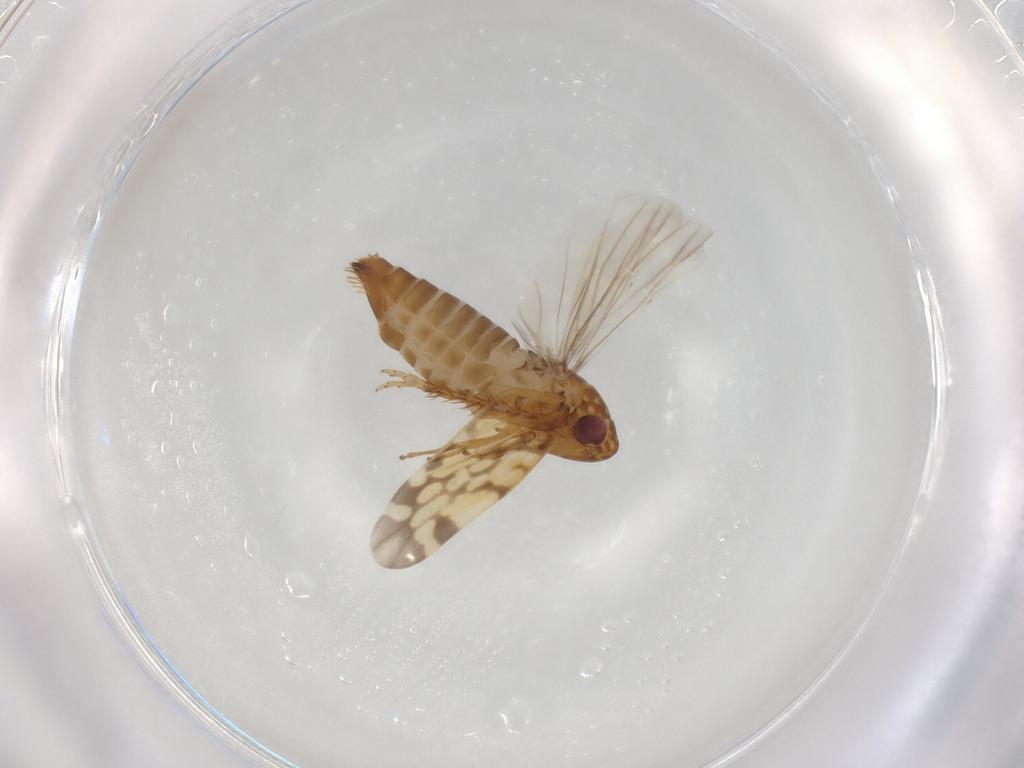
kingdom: Animalia
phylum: Arthropoda
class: Insecta
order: Hemiptera
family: Cicadellidae
